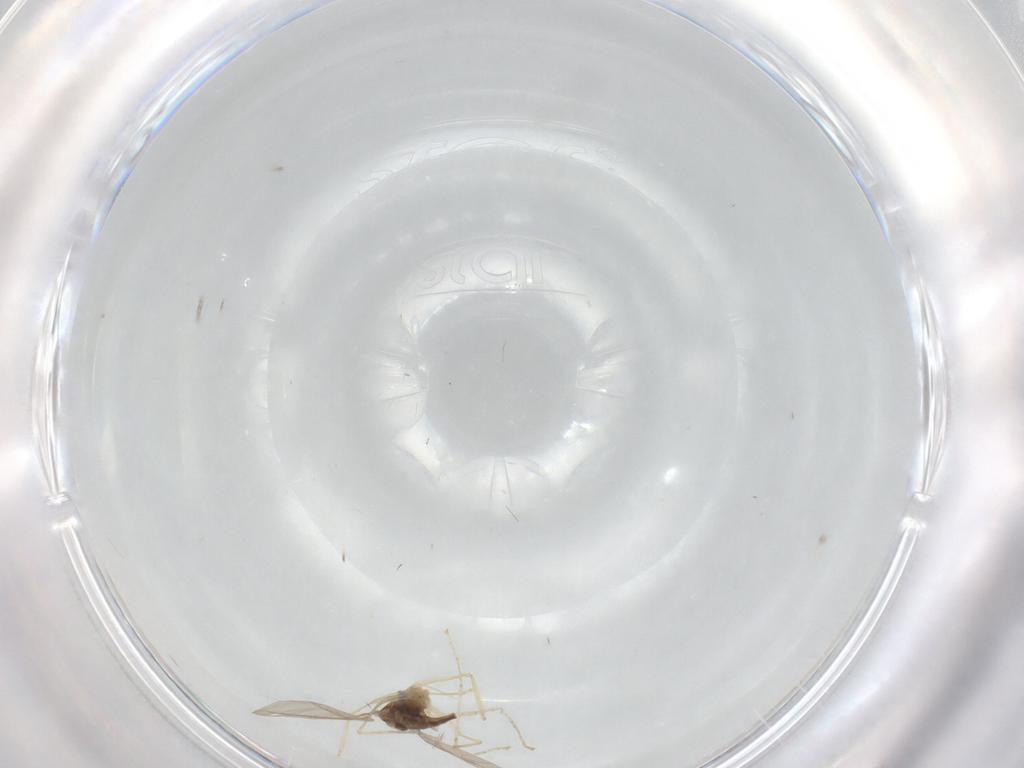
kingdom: Animalia
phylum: Arthropoda
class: Insecta
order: Diptera
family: Cecidomyiidae
